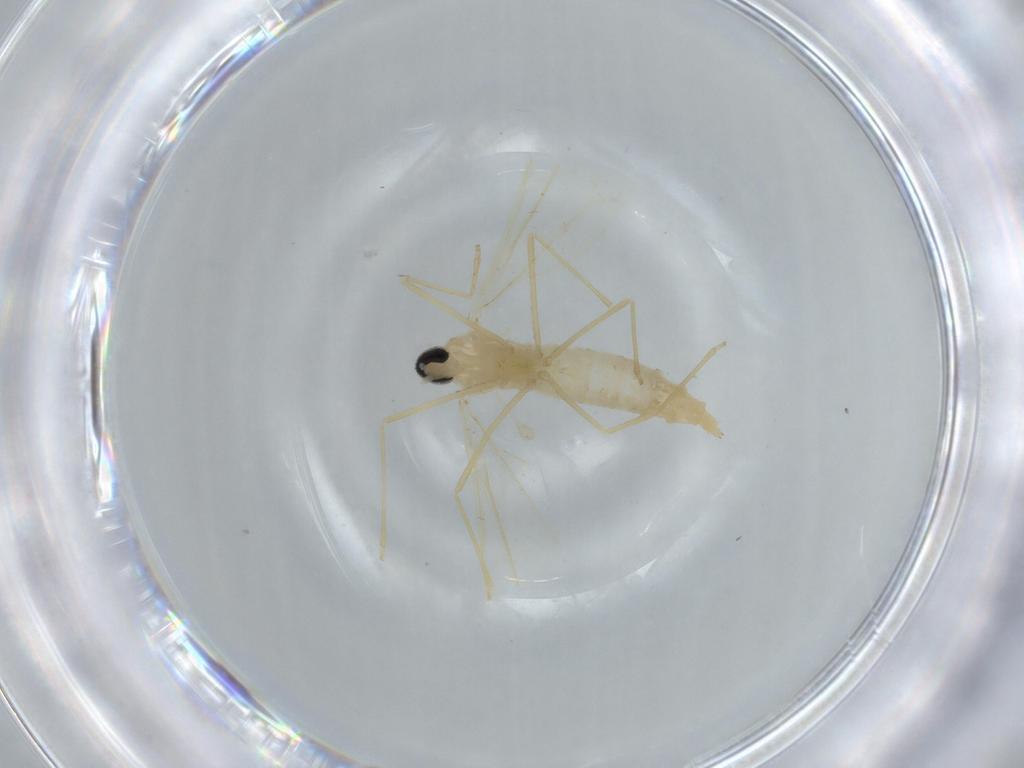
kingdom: Animalia
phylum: Arthropoda
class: Insecta
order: Diptera
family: Cecidomyiidae
